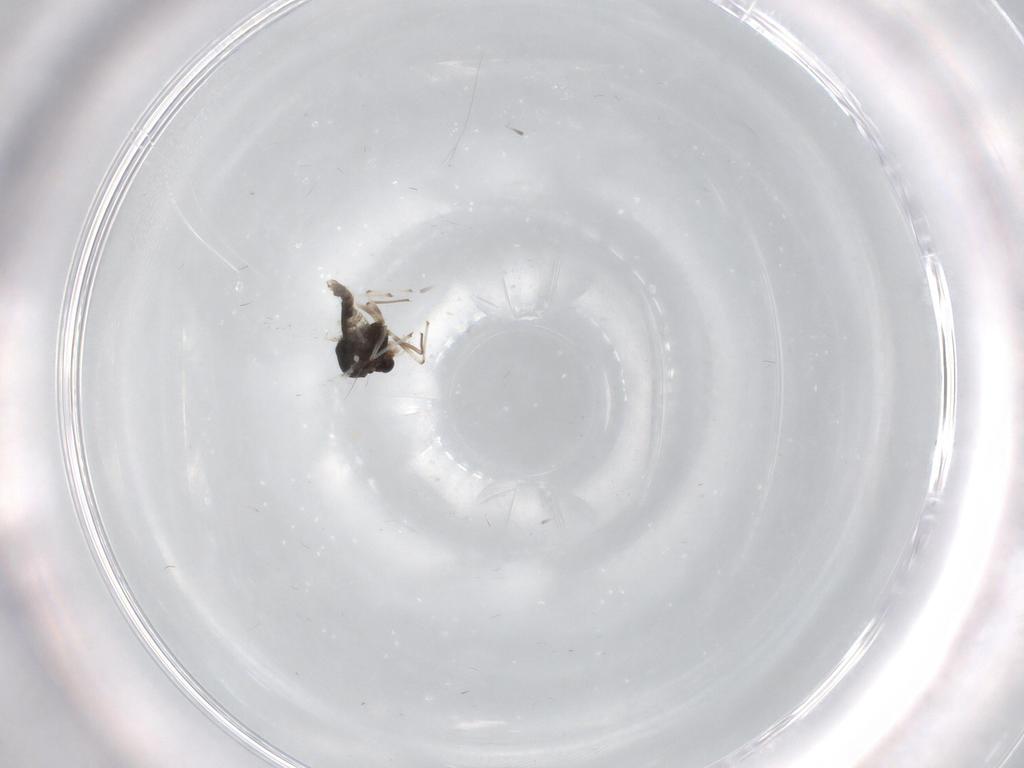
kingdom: Animalia
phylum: Arthropoda
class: Insecta
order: Diptera
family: Chironomidae
